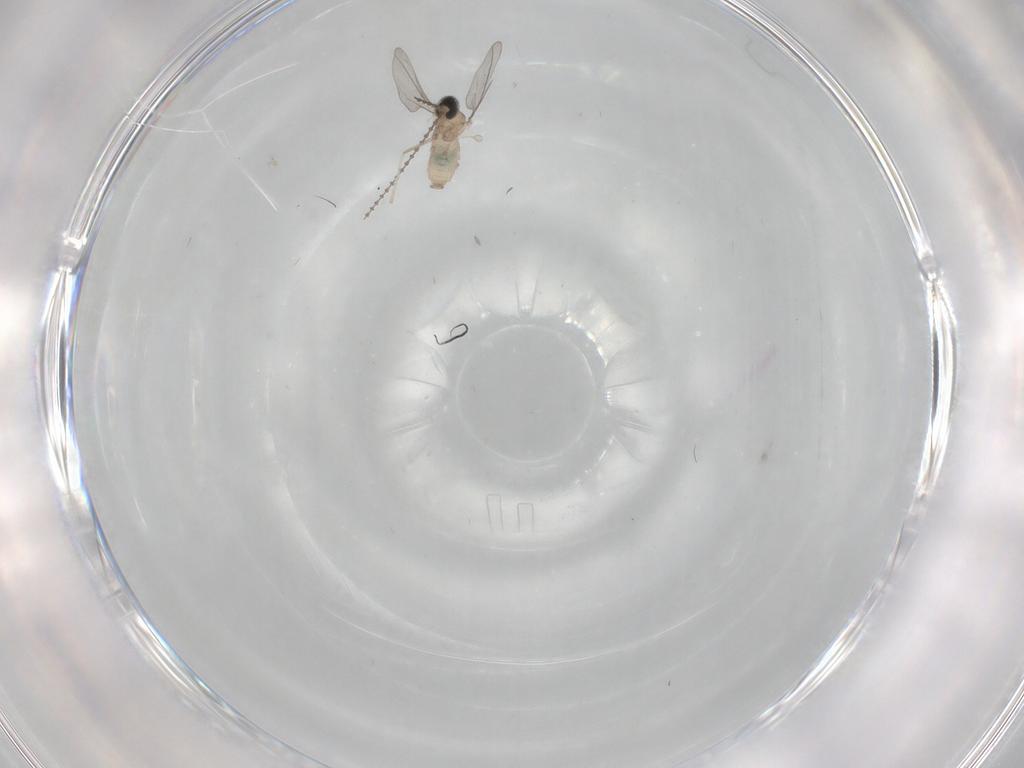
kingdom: Animalia
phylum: Arthropoda
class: Insecta
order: Diptera
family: Cecidomyiidae
